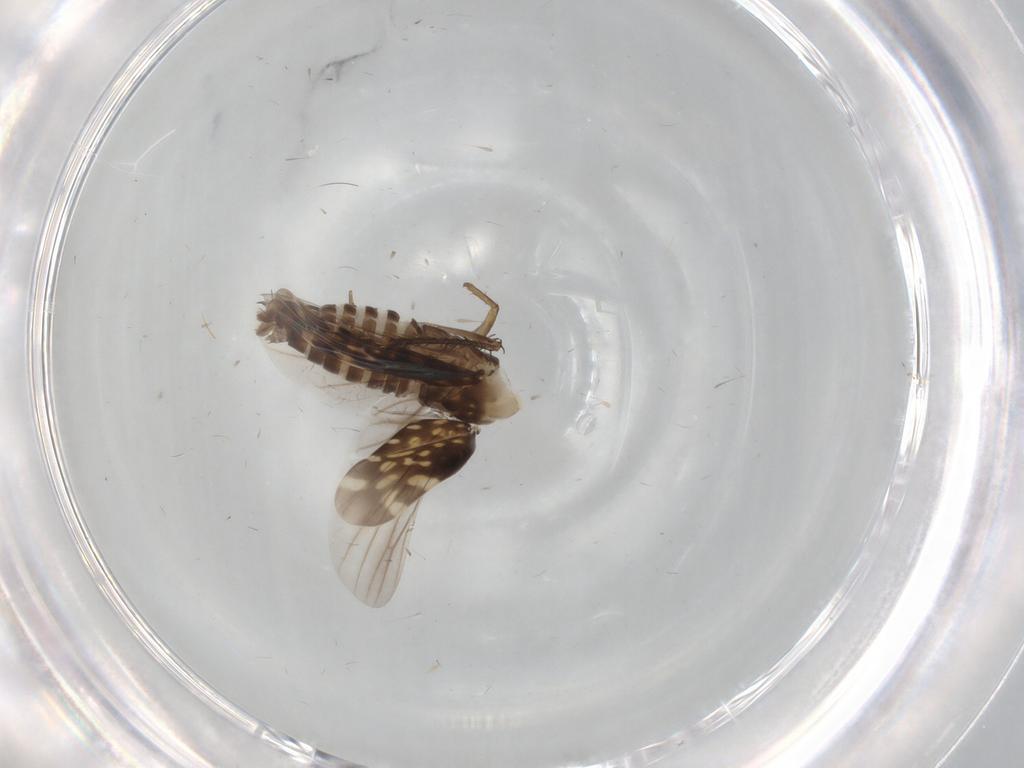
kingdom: Animalia
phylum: Arthropoda
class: Insecta
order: Hemiptera
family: Cicadellidae
